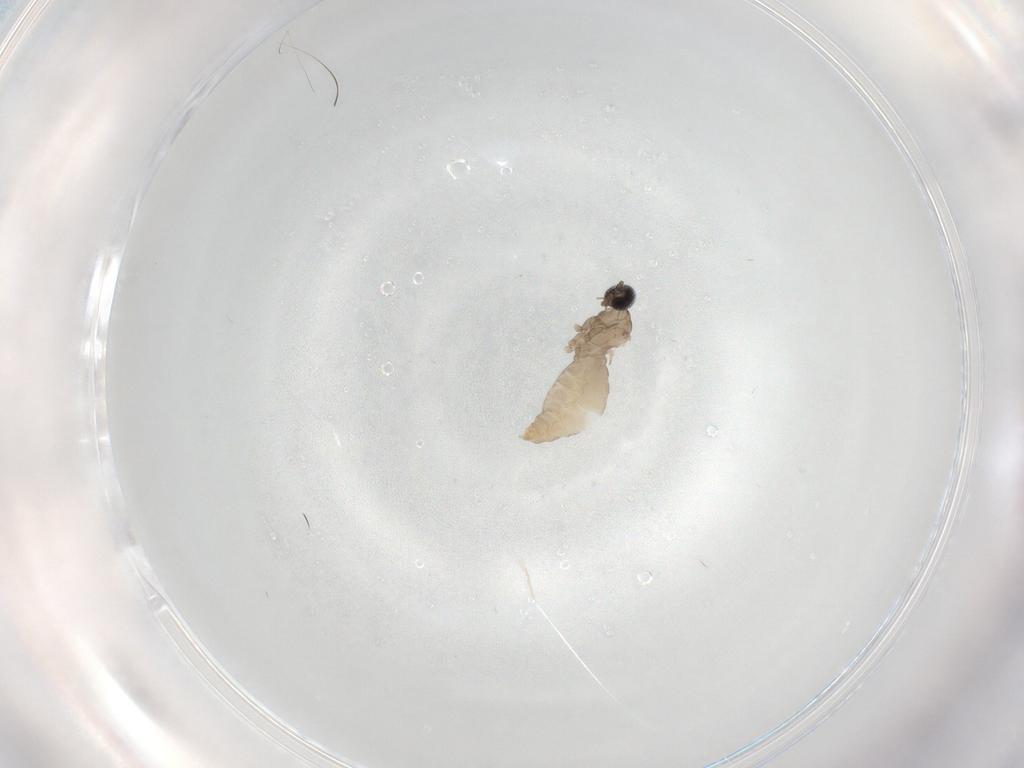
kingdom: Animalia
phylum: Arthropoda
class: Insecta
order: Diptera
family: Cecidomyiidae
